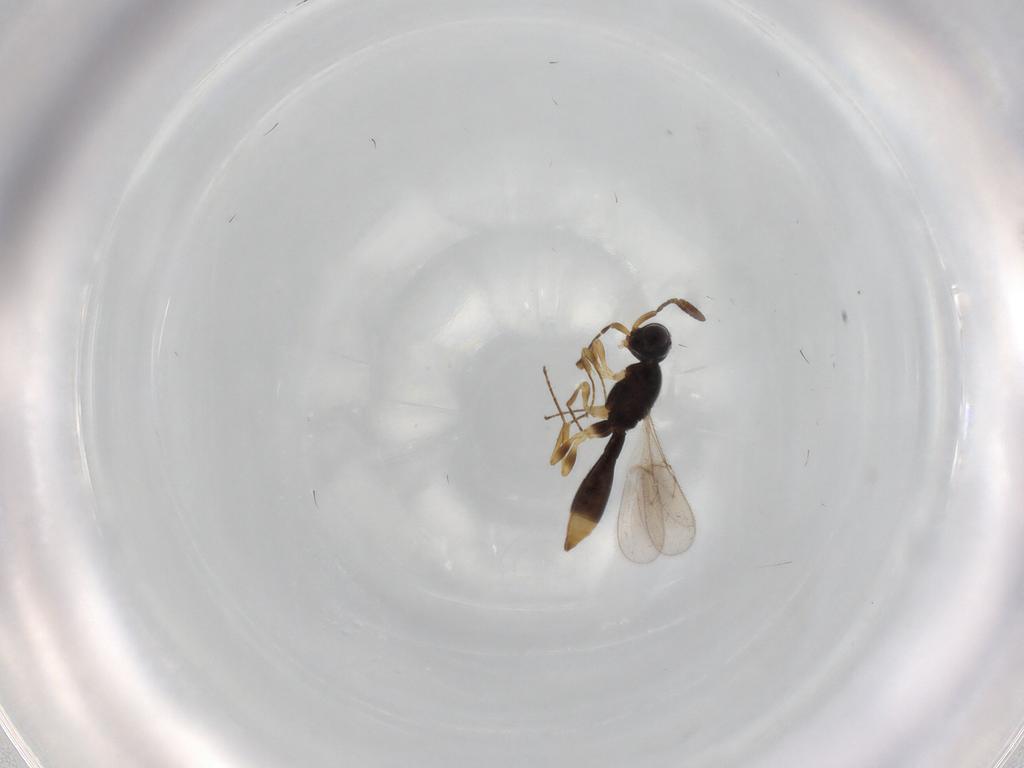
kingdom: Animalia
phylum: Arthropoda
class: Insecta
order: Hymenoptera
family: Scelionidae
